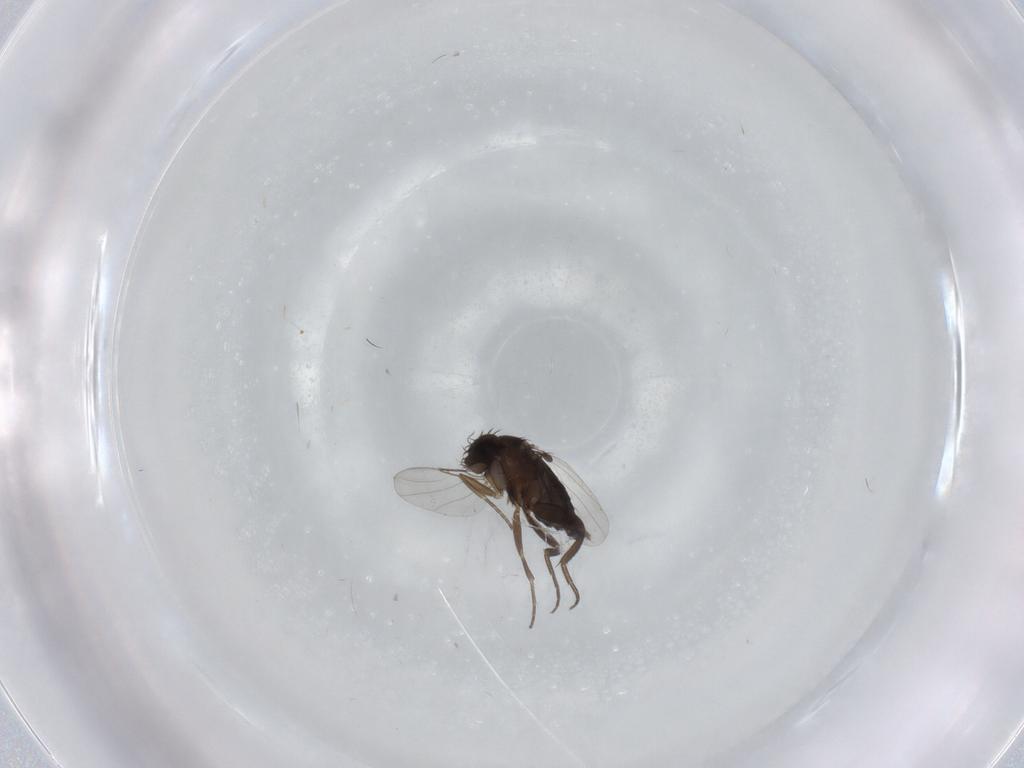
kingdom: Animalia
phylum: Arthropoda
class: Insecta
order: Diptera
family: Phoridae
